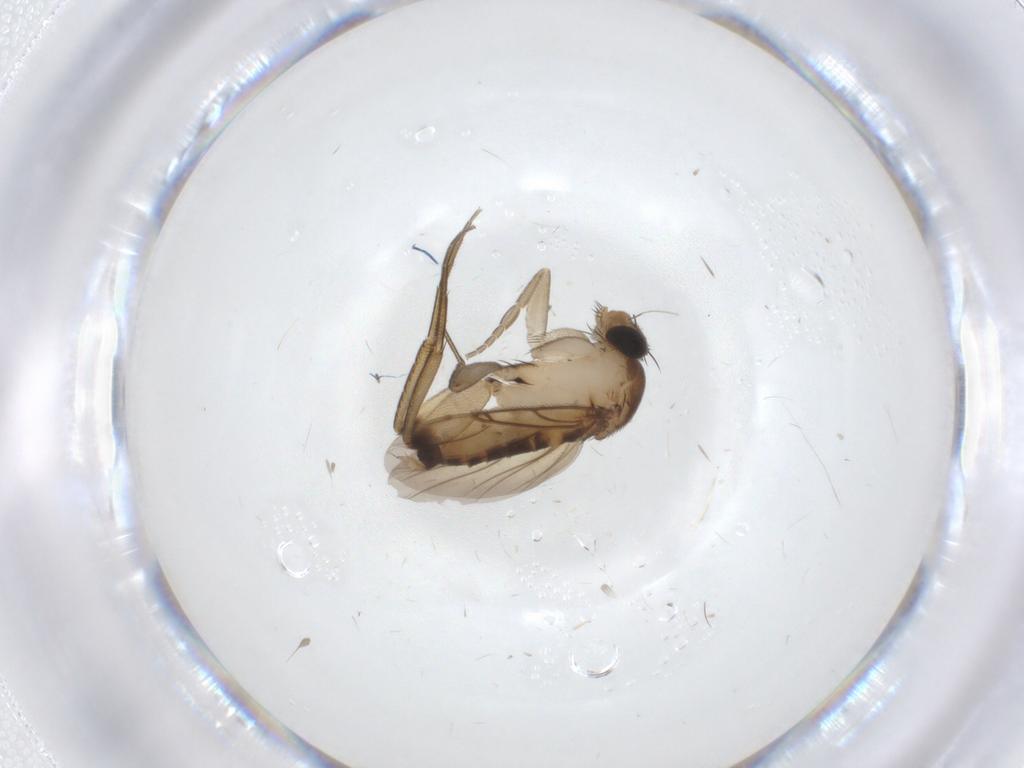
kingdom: Animalia
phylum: Arthropoda
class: Insecta
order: Diptera
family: Phoridae
